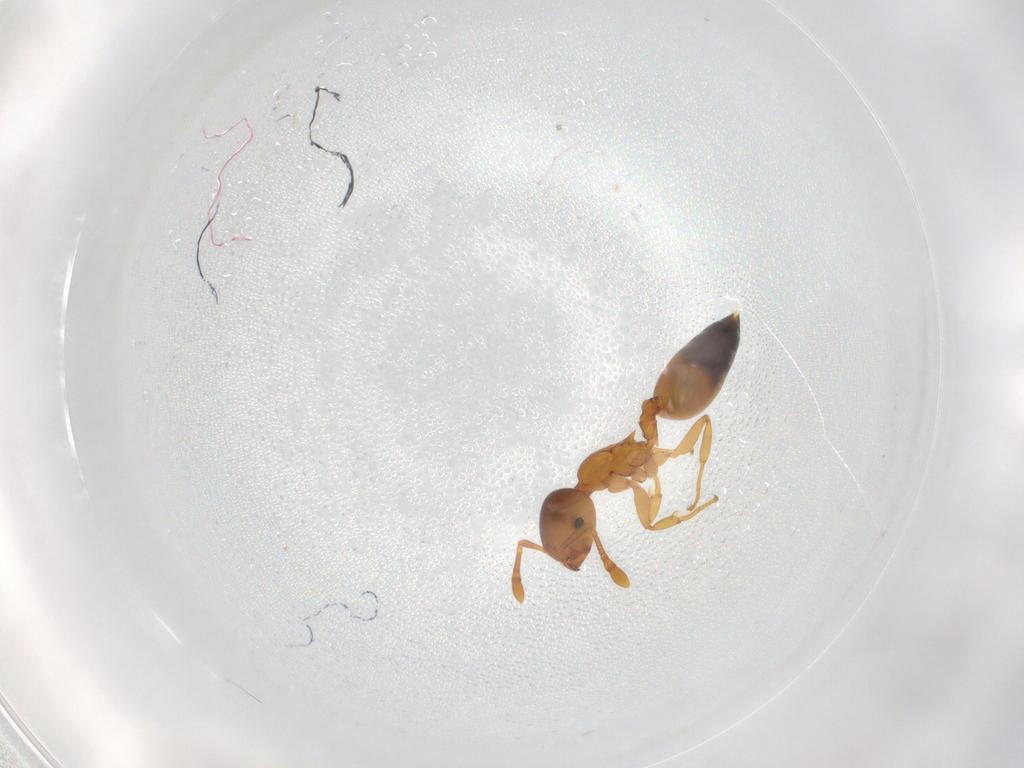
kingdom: Animalia
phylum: Arthropoda
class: Insecta
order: Hymenoptera
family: Formicidae
